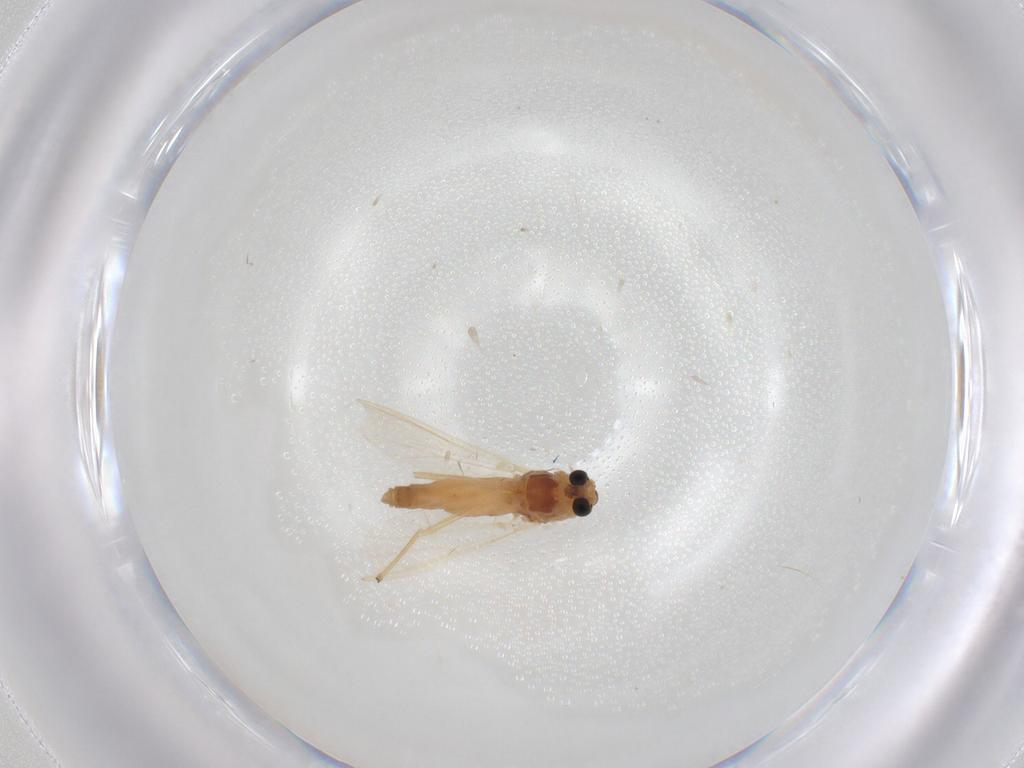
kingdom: Animalia
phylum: Arthropoda
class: Insecta
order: Diptera
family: Chironomidae
